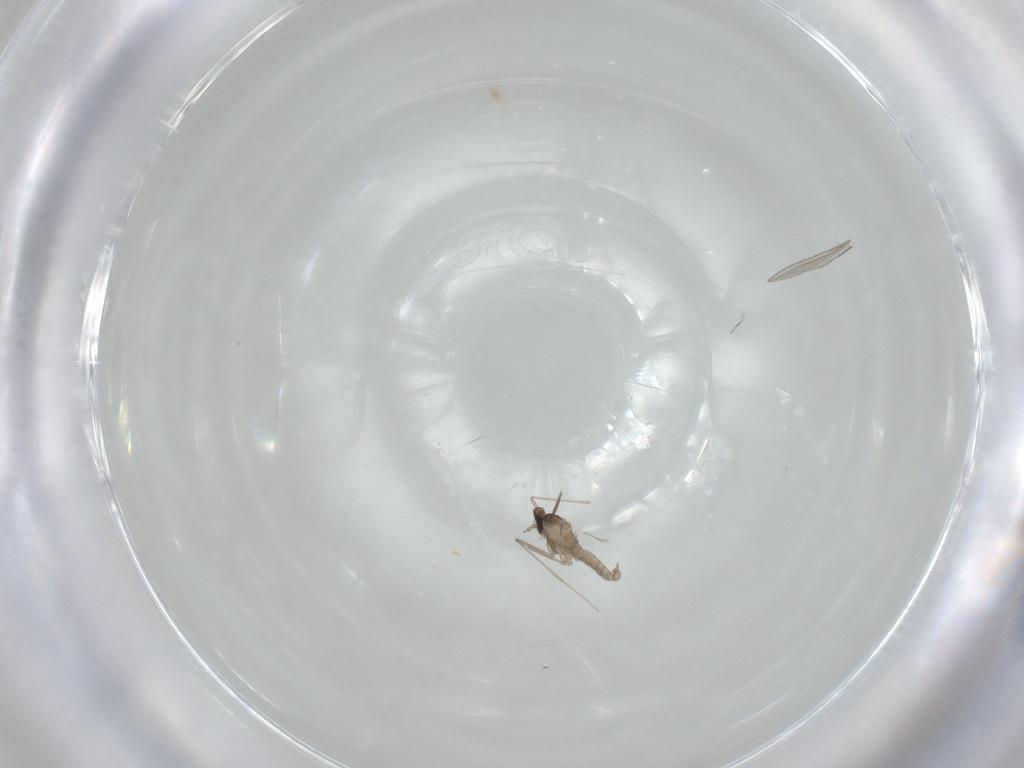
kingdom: Animalia
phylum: Arthropoda
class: Insecta
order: Diptera
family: Cecidomyiidae
